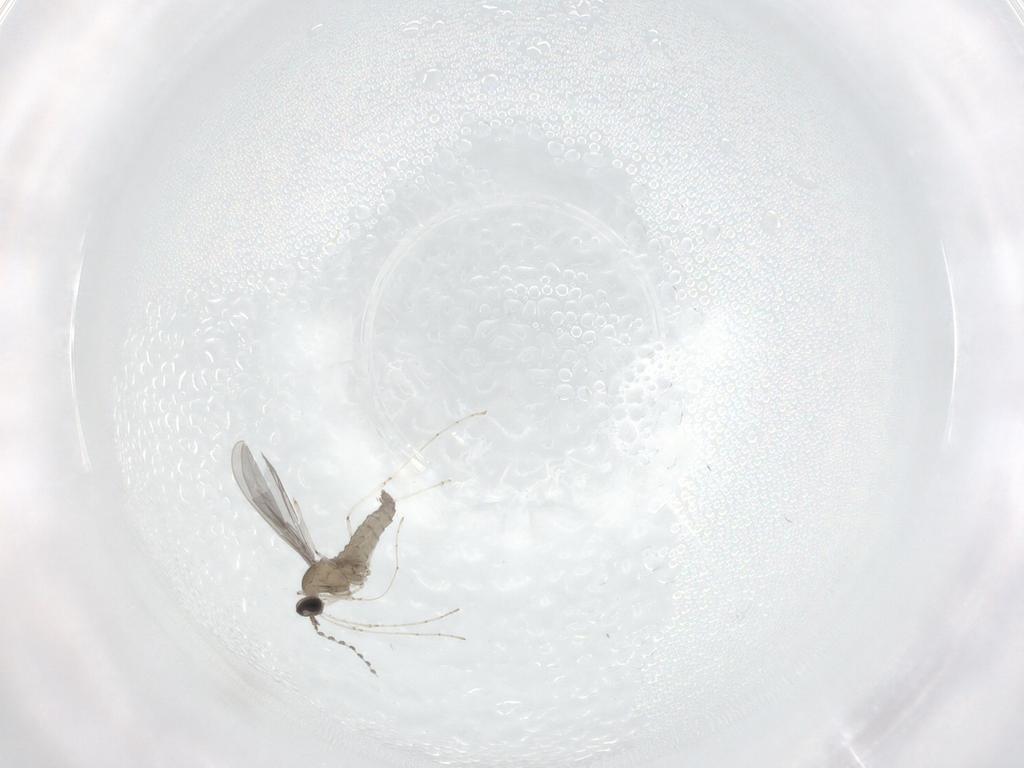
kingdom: Animalia
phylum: Arthropoda
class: Insecta
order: Diptera
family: Cecidomyiidae
